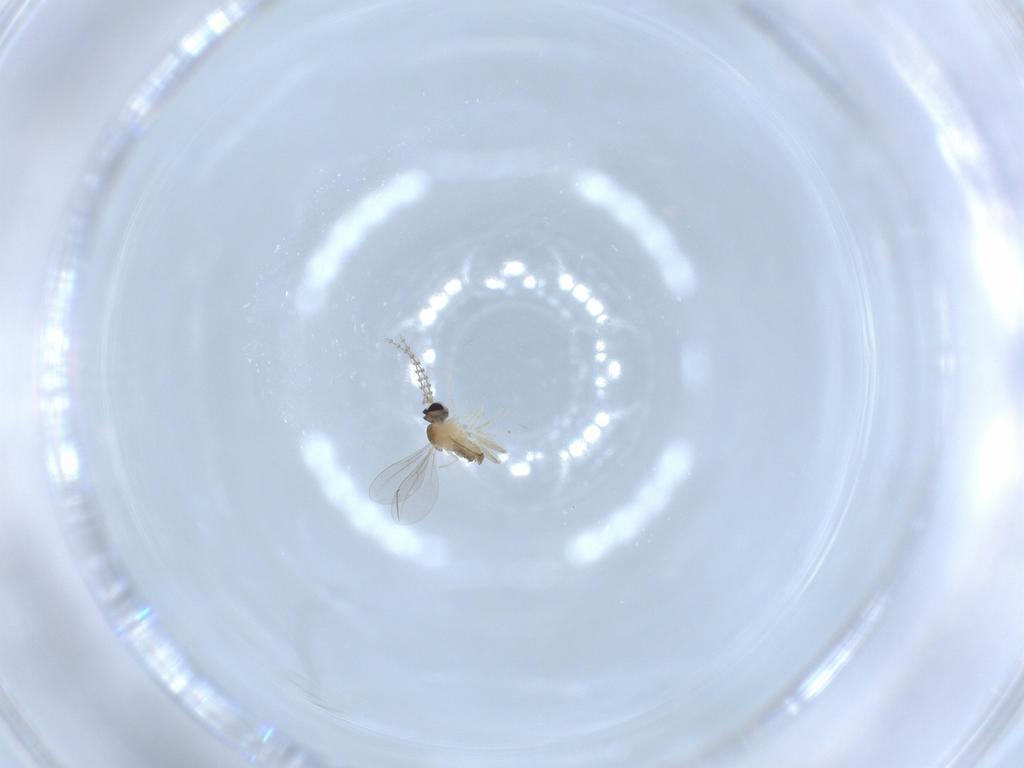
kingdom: Animalia
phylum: Arthropoda
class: Insecta
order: Diptera
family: Cecidomyiidae
